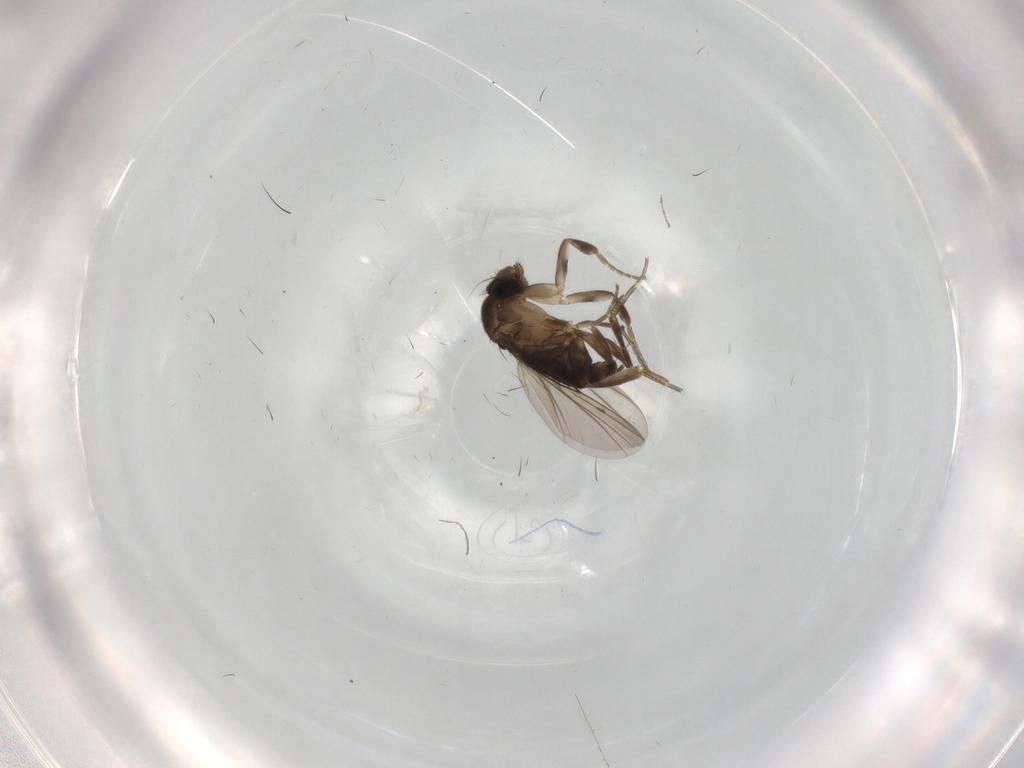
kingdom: Animalia
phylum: Arthropoda
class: Insecta
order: Diptera
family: Phoridae
